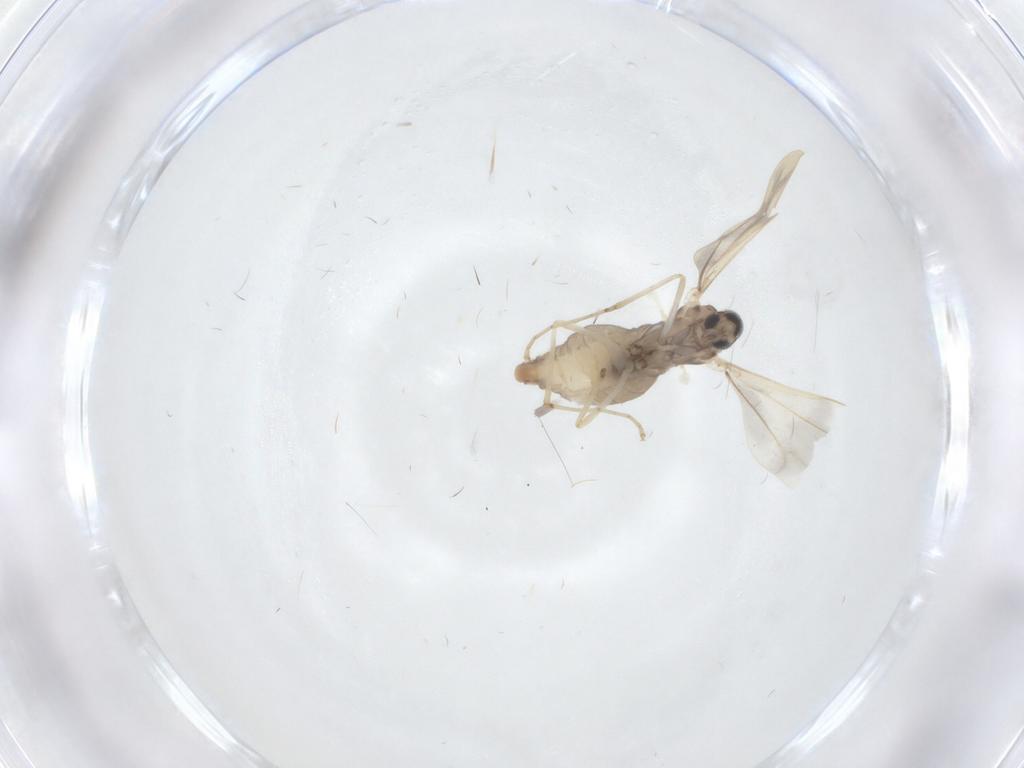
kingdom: Animalia
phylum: Arthropoda
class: Insecta
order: Diptera
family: Cecidomyiidae
